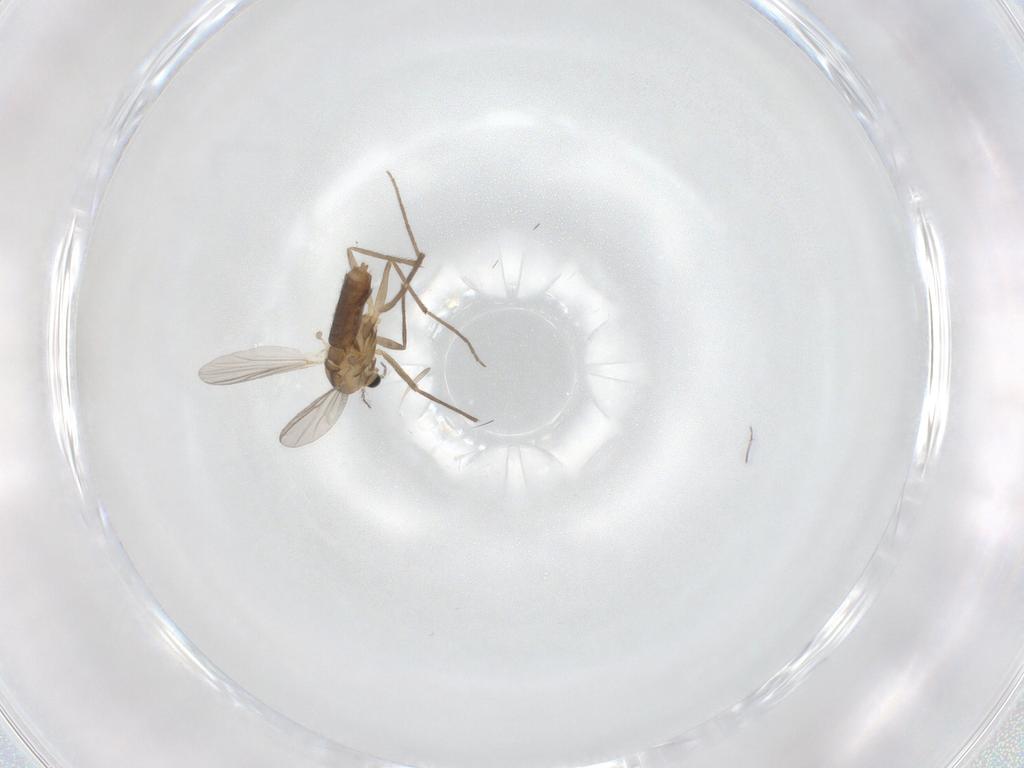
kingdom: Animalia
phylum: Arthropoda
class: Insecta
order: Diptera
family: Chironomidae
